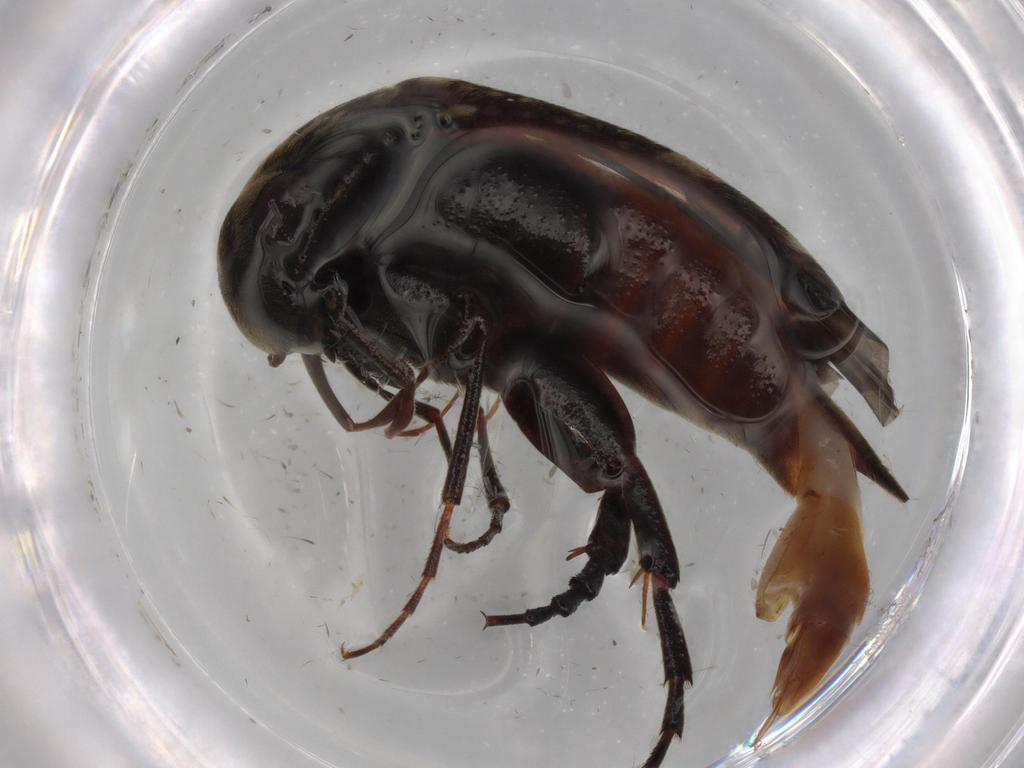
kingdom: Animalia
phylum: Arthropoda
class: Insecta
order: Coleoptera
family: Mordellidae
